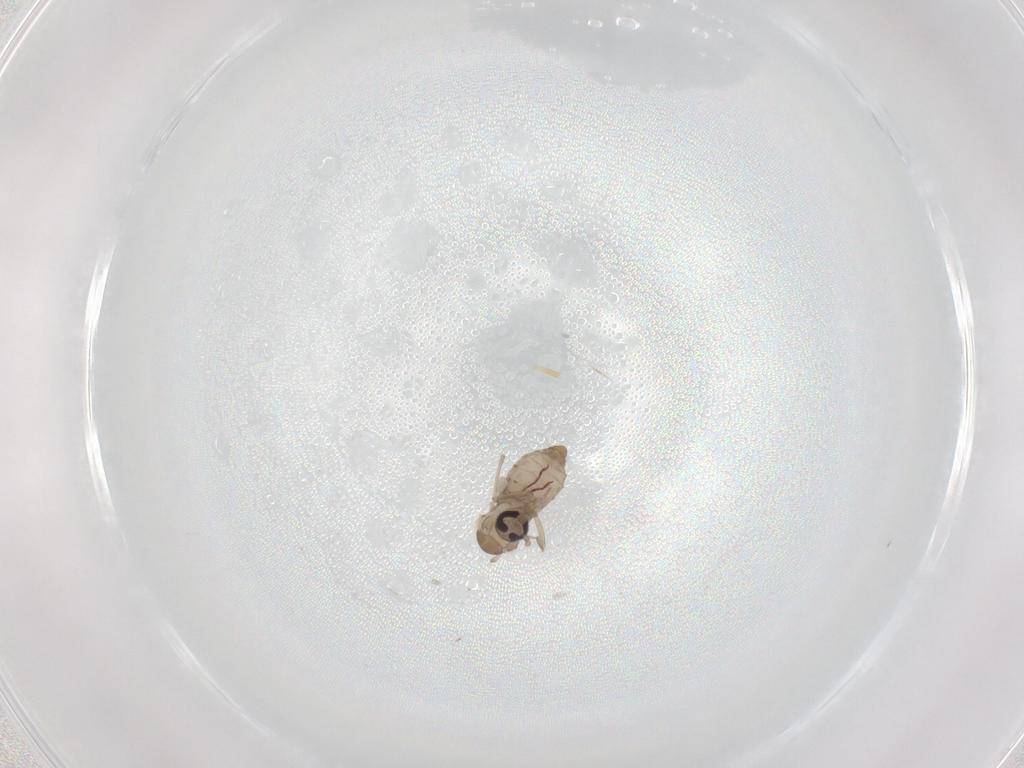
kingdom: Animalia
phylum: Arthropoda
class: Insecta
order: Diptera
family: Psychodidae
